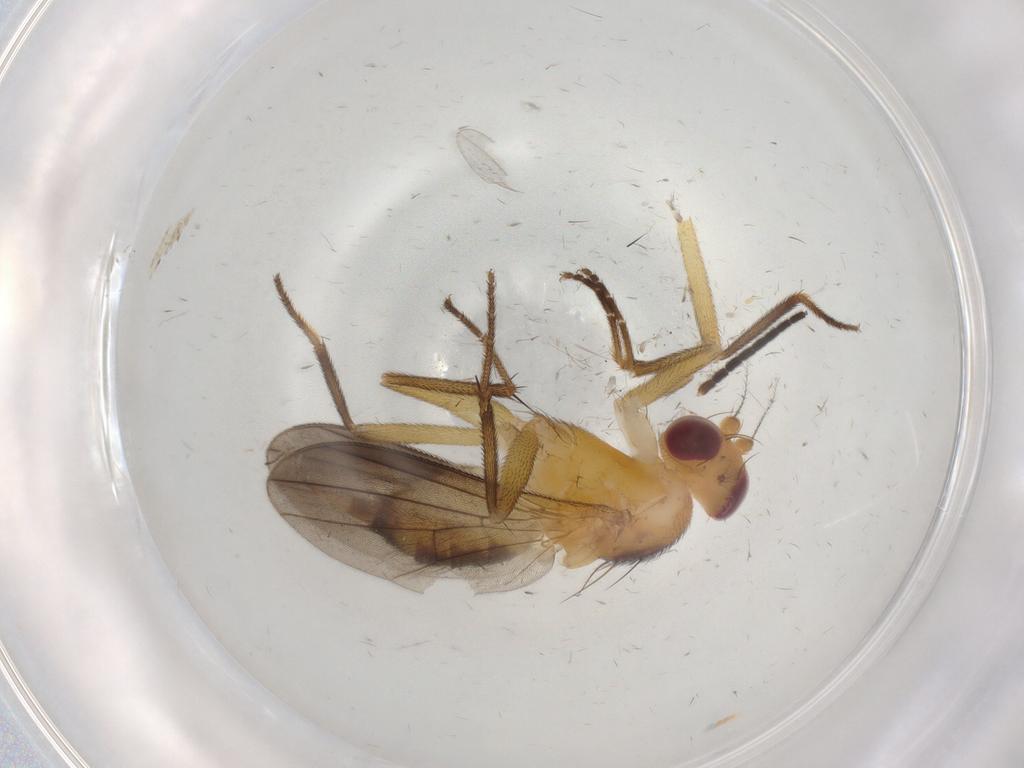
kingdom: Animalia
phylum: Arthropoda
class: Insecta
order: Diptera
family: Clusiidae
